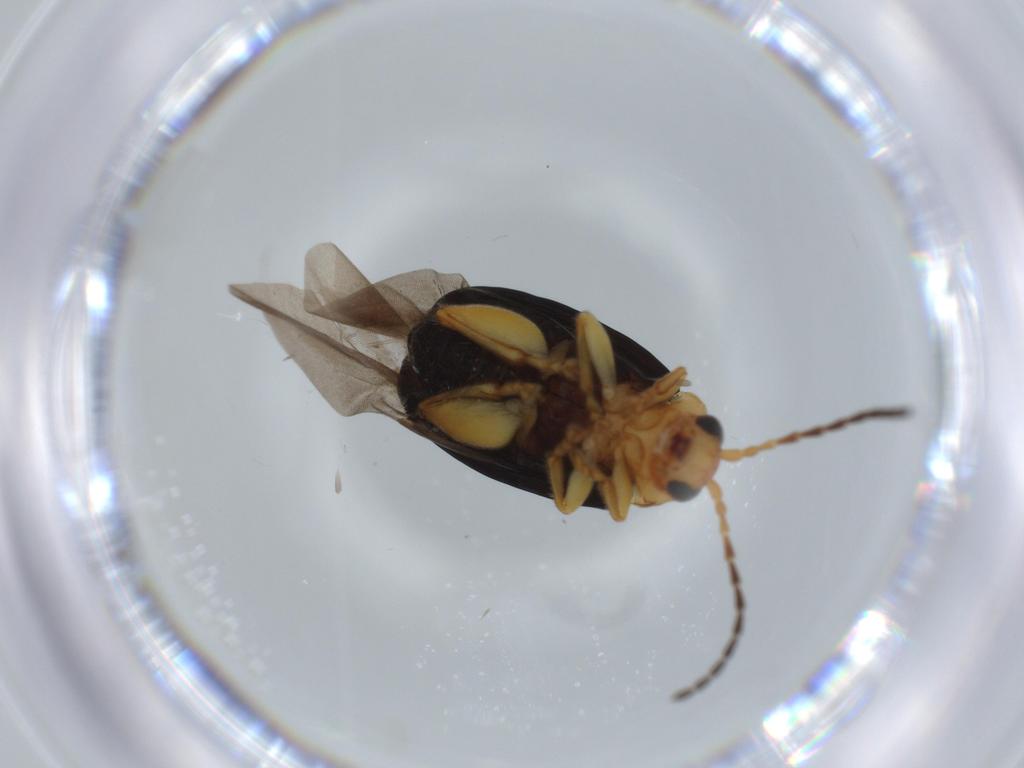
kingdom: Animalia
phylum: Arthropoda
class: Insecta
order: Coleoptera
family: Chrysomelidae
